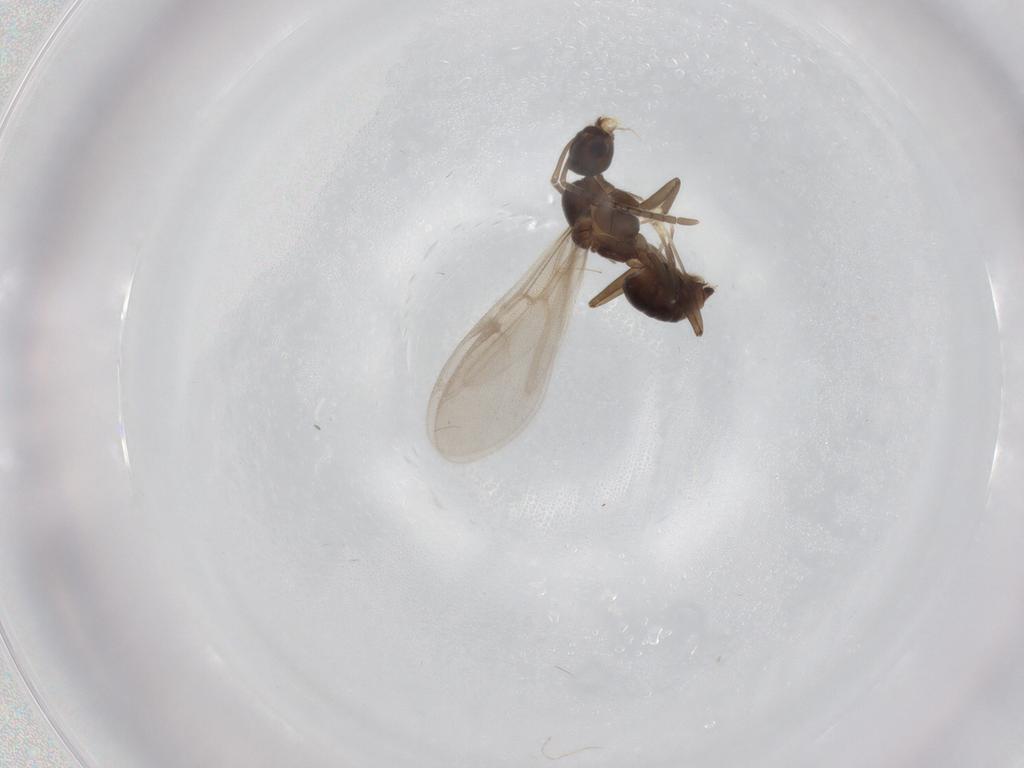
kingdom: Animalia
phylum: Arthropoda
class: Insecta
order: Hymenoptera
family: Formicidae
